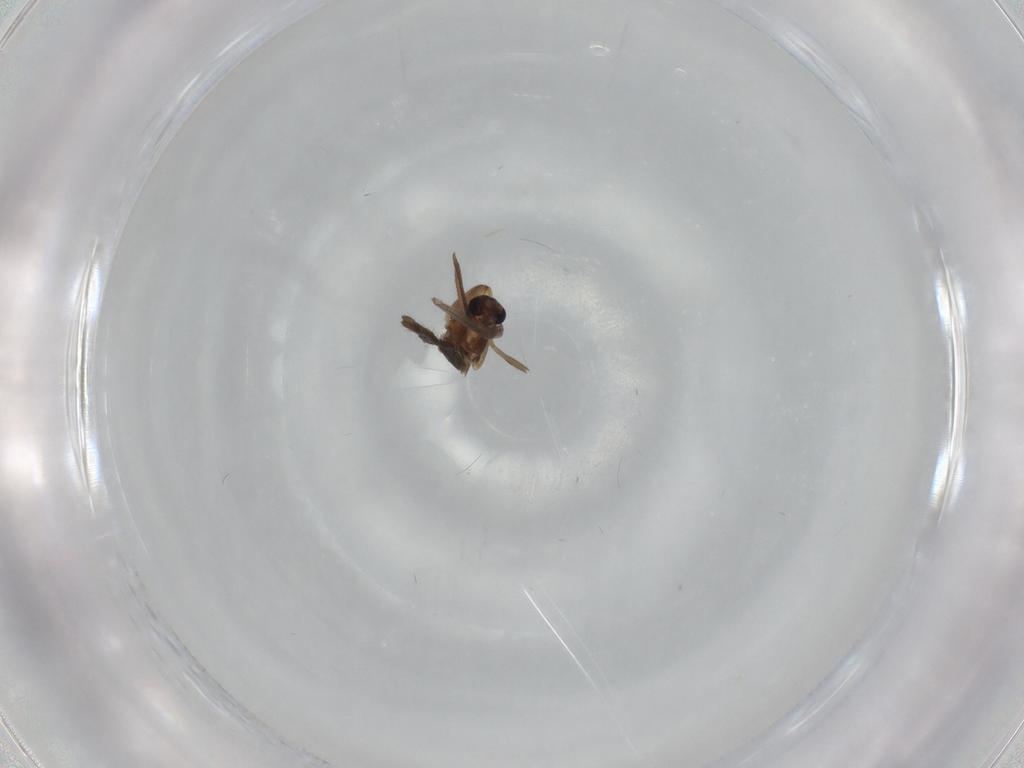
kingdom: Animalia
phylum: Arthropoda
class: Insecta
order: Diptera
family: Chironomidae
